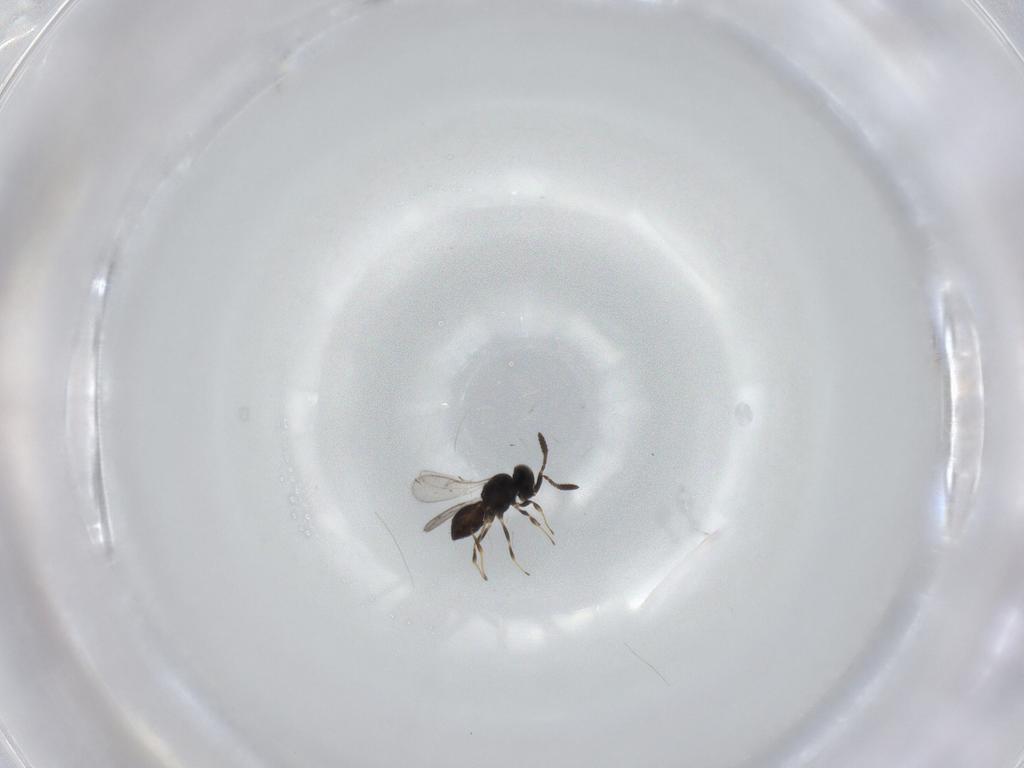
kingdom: Animalia
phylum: Arthropoda
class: Insecta
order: Hymenoptera
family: Scelionidae
